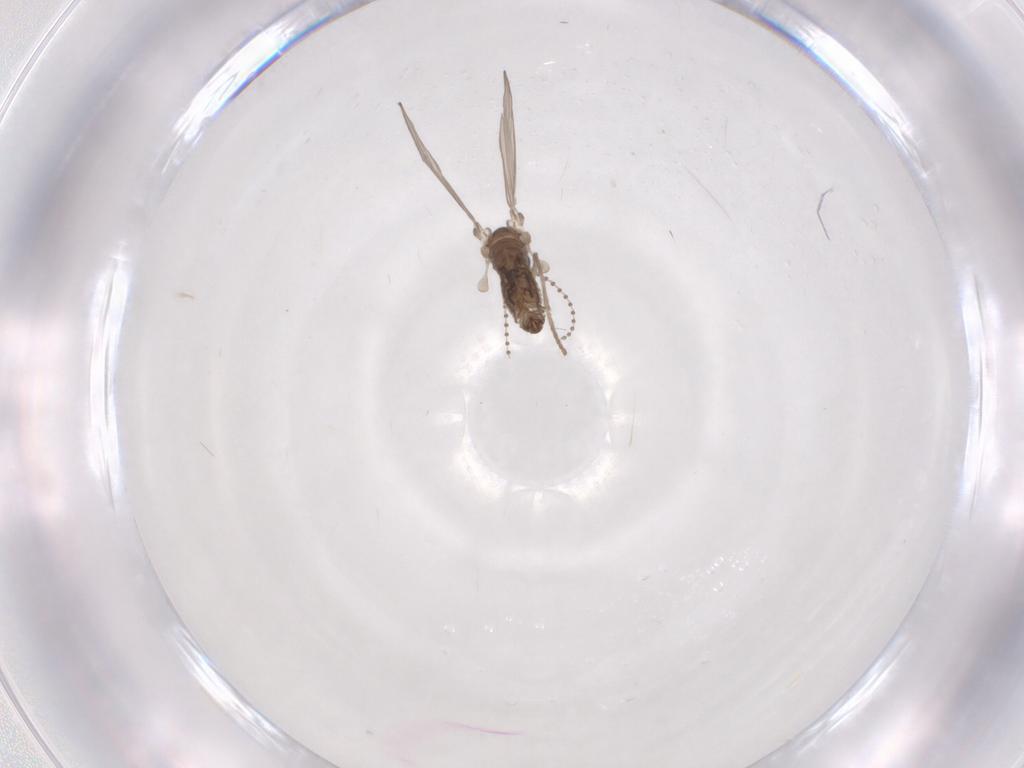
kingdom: Animalia
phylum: Arthropoda
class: Insecta
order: Diptera
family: Psychodidae
